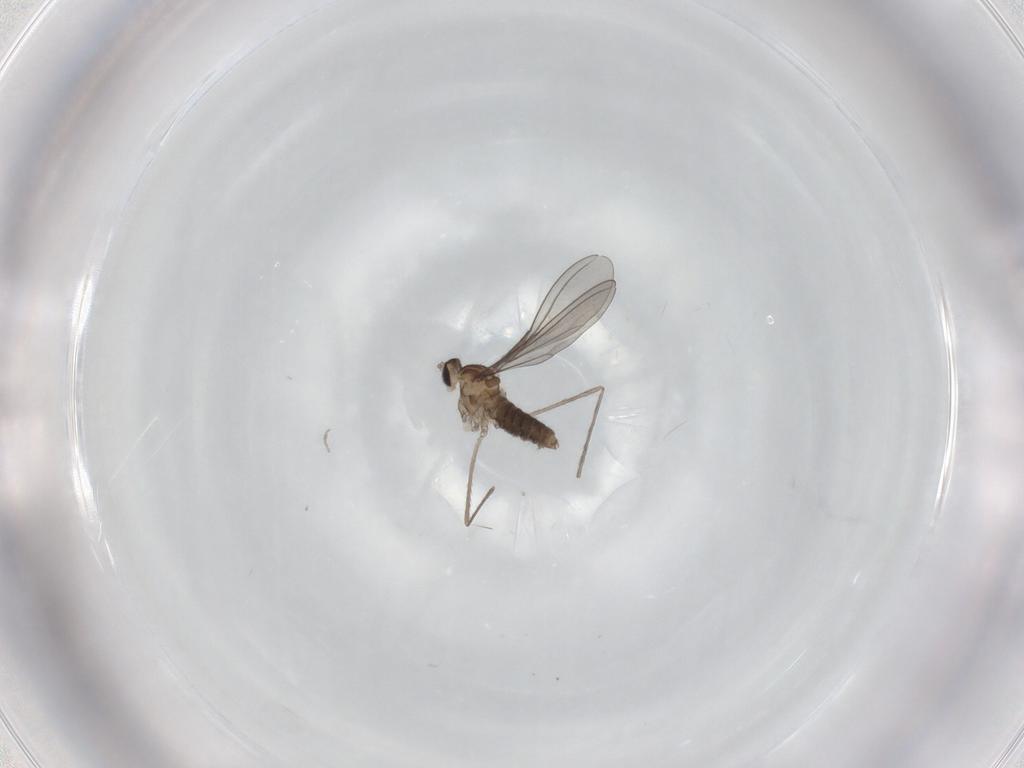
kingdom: Animalia
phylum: Arthropoda
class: Insecta
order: Diptera
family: Cecidomyiidae
